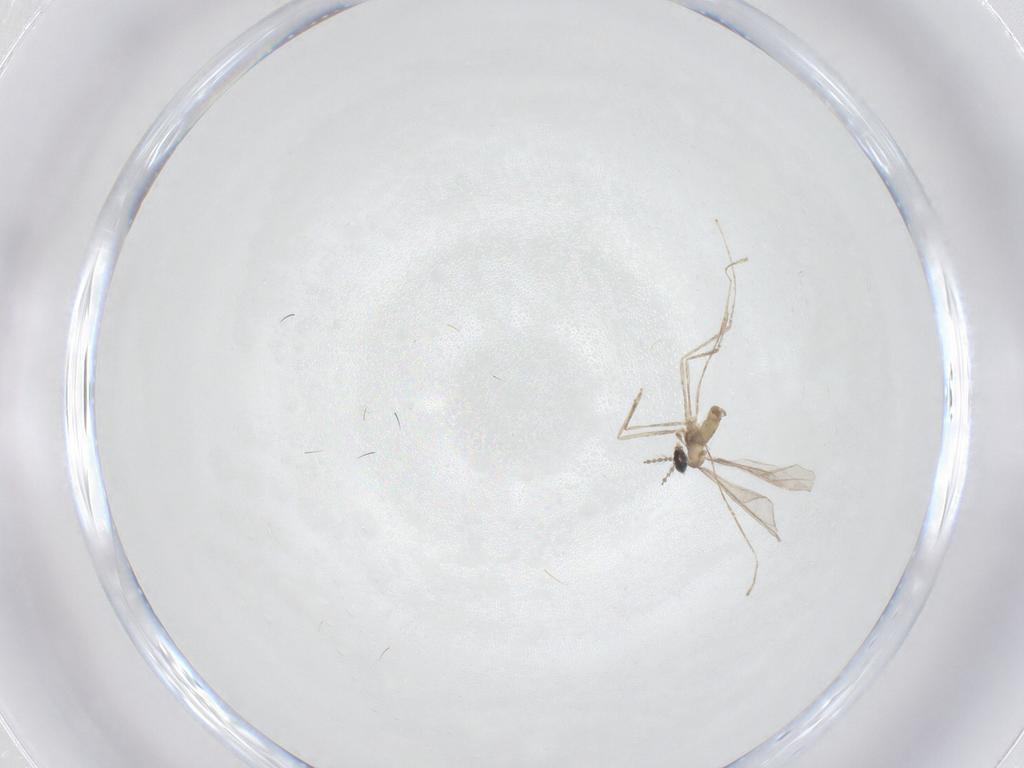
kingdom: Animalia
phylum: Arthropoda
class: Insecta
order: Diptera
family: Cecidomyiidae
